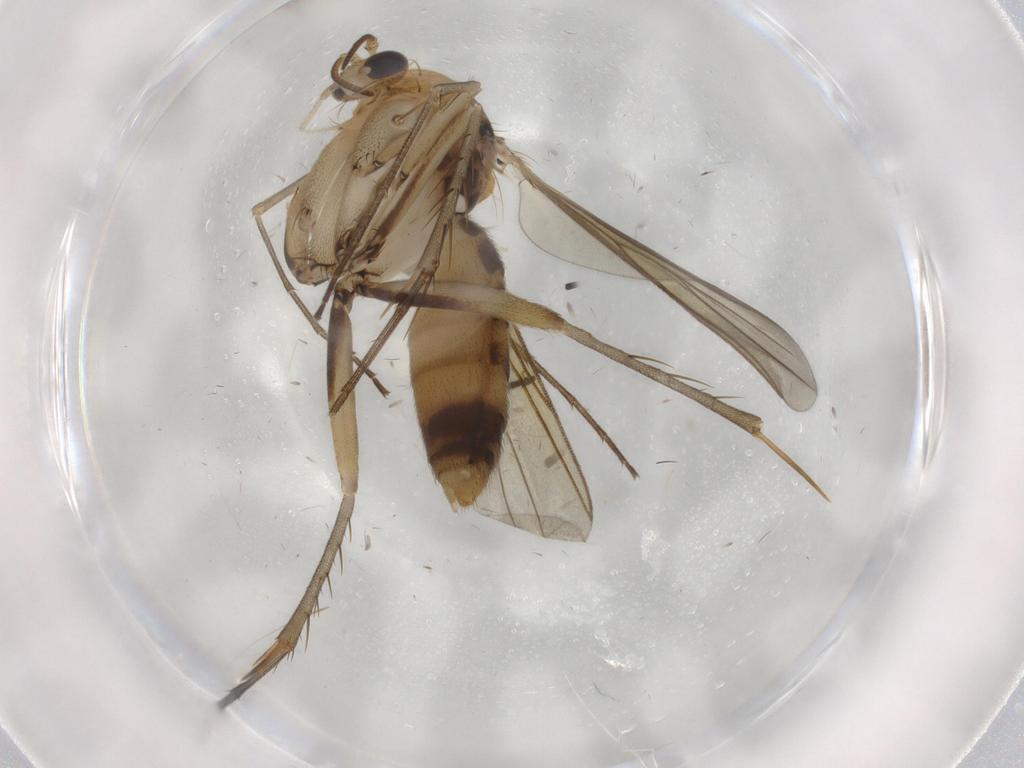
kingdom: Animalia
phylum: Arthropoda
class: Insecta
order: Diptera
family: Mycetophilidae
